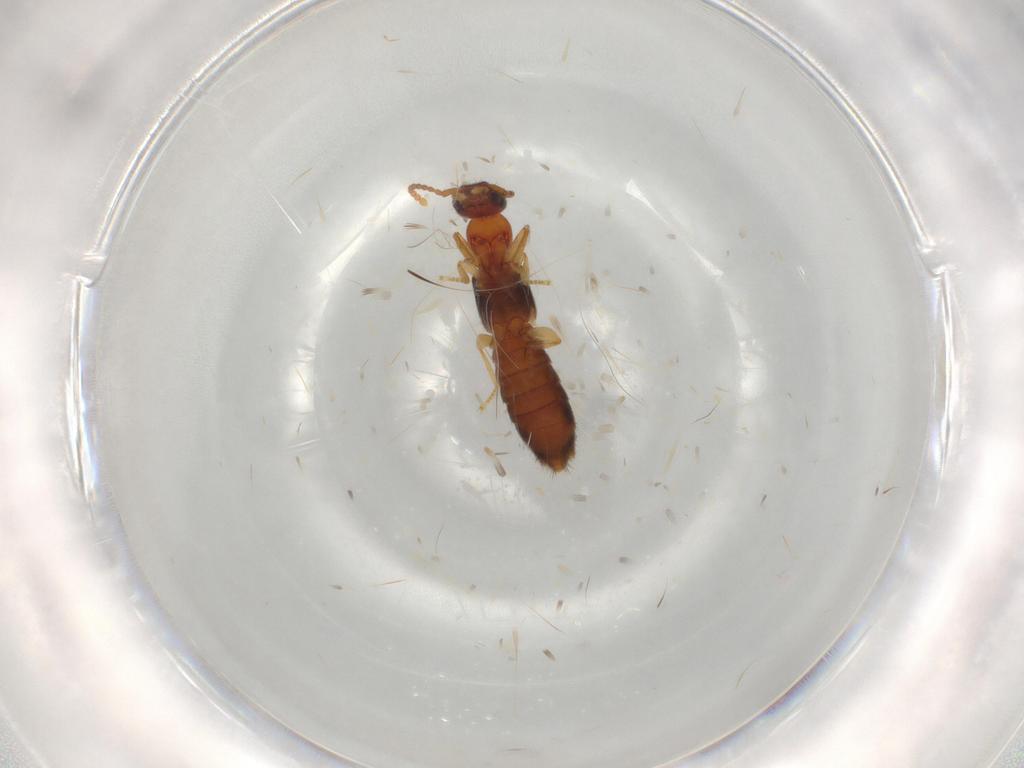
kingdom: Animalia
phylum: Arthropoda
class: Insecta
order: Coleoptera
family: Staphylinidae
